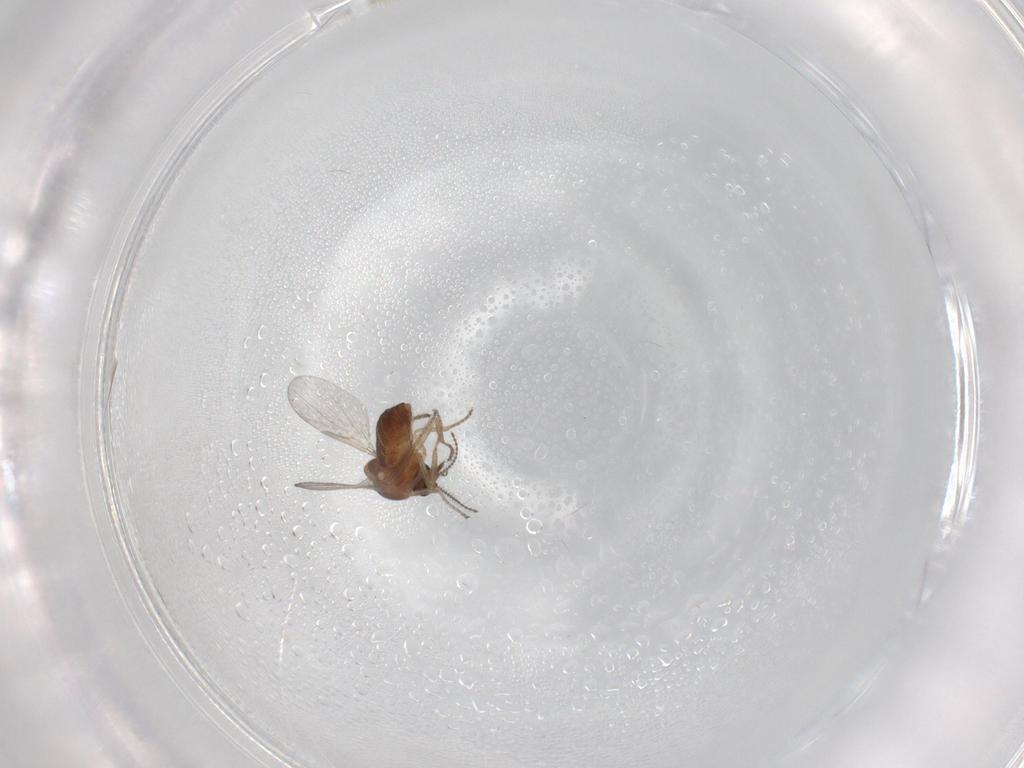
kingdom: Animalia
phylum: Arthropoda
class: Insecta
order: Diptera
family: Ceratopogonidae
